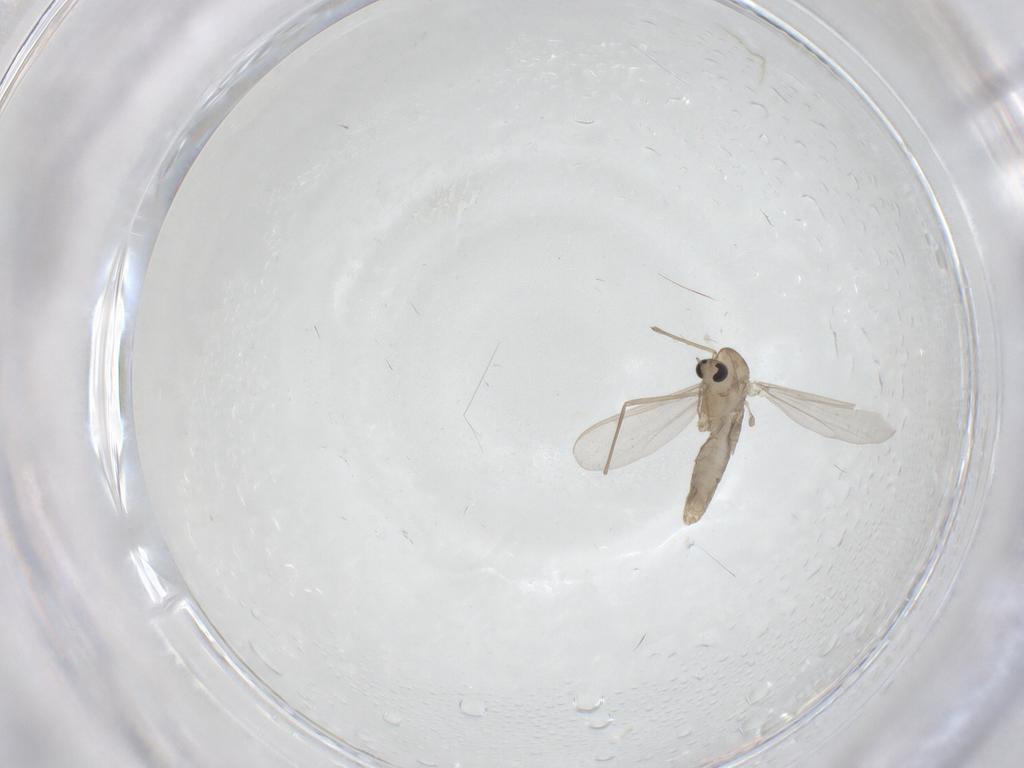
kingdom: Animalia
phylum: Arthropoda
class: Insecta
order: Diptera
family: Chironomidae
